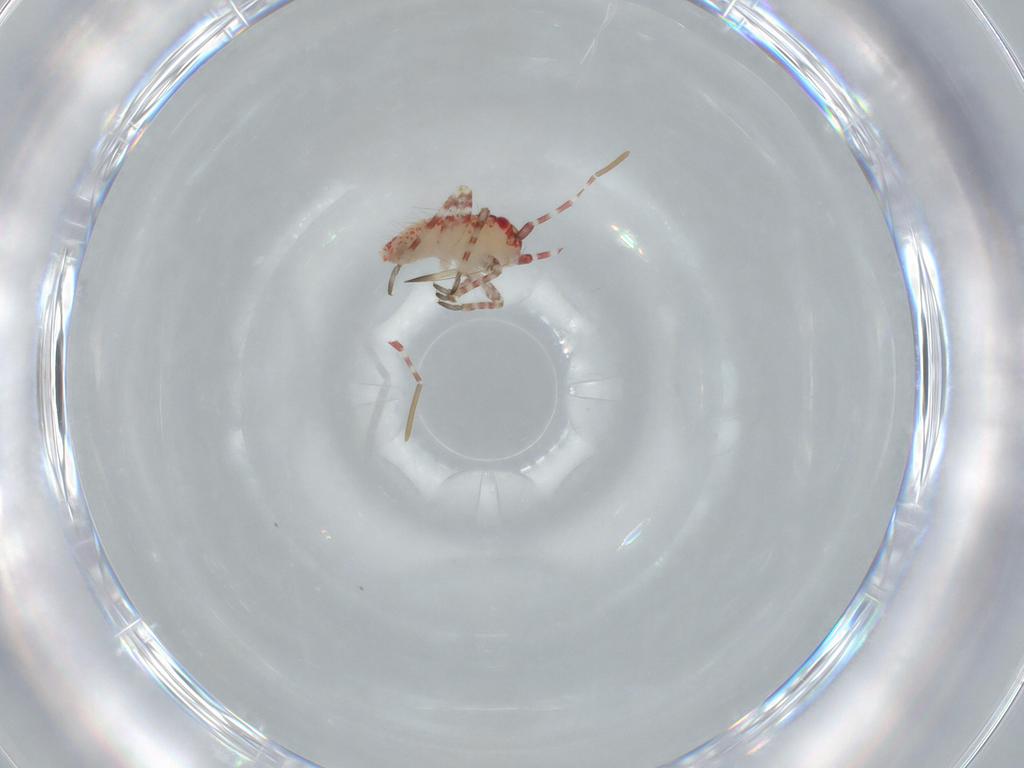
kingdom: Animalia
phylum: Arthropoda
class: Insecta
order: Hemiptera
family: Miridae
